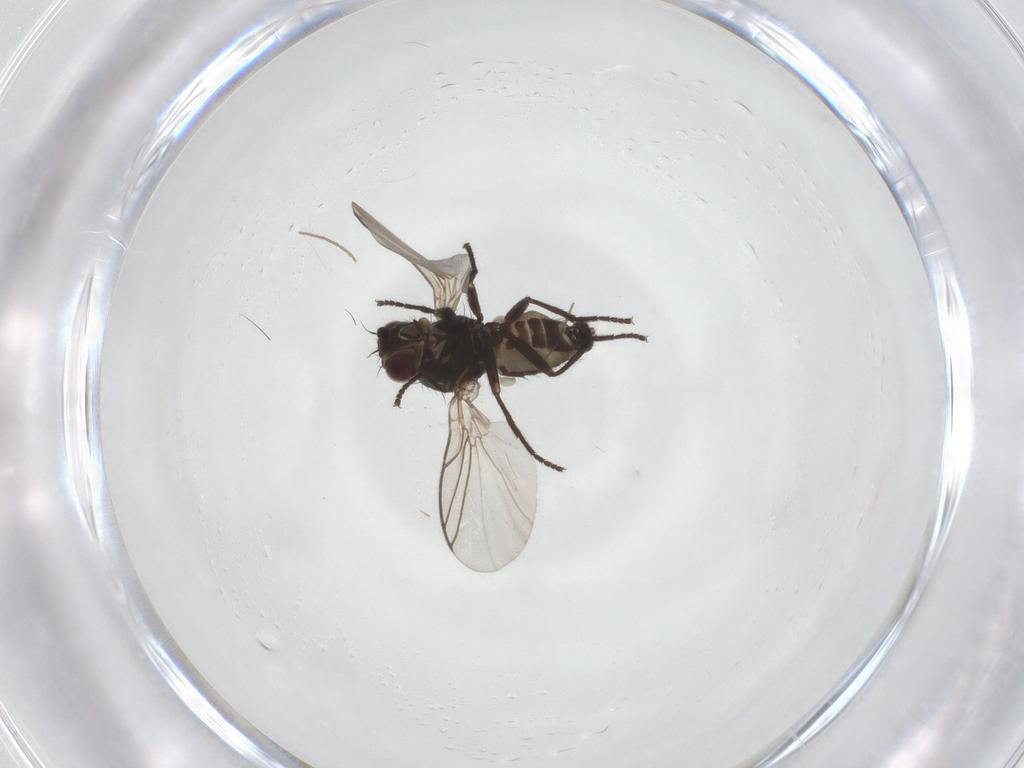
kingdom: Animalia
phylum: Arthropoda
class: Insecta
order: Diptera
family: Agromyzidae
